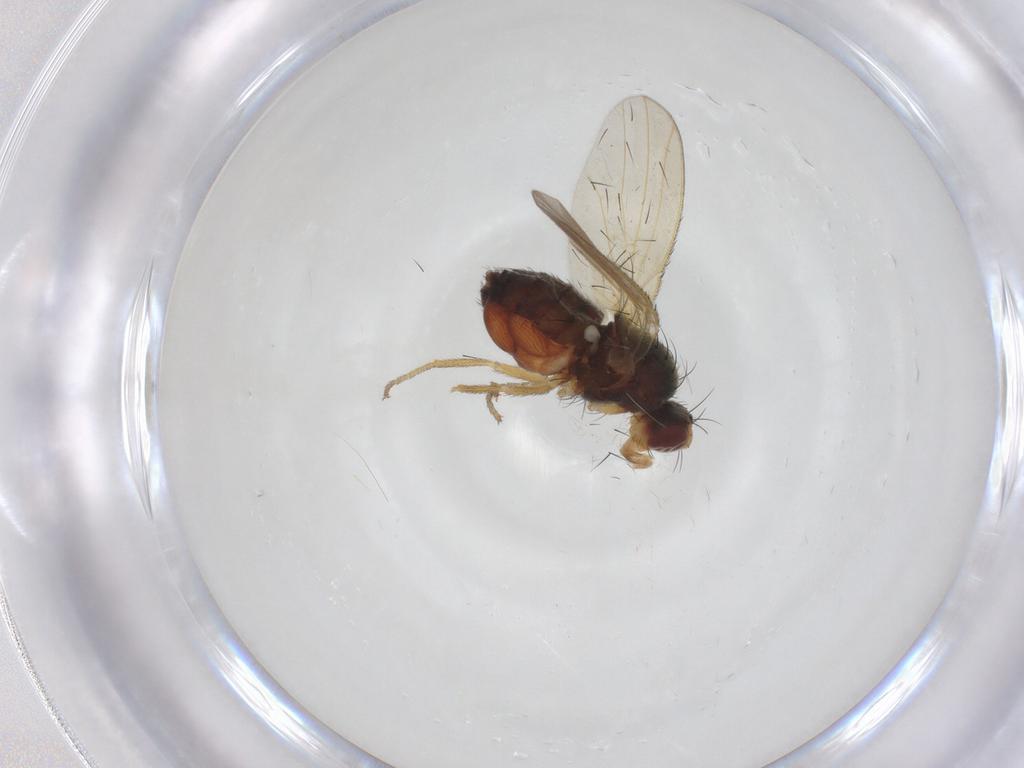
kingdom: Animalia
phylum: Arthropoda
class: Insecta
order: Diptera
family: Heleomyzidae
